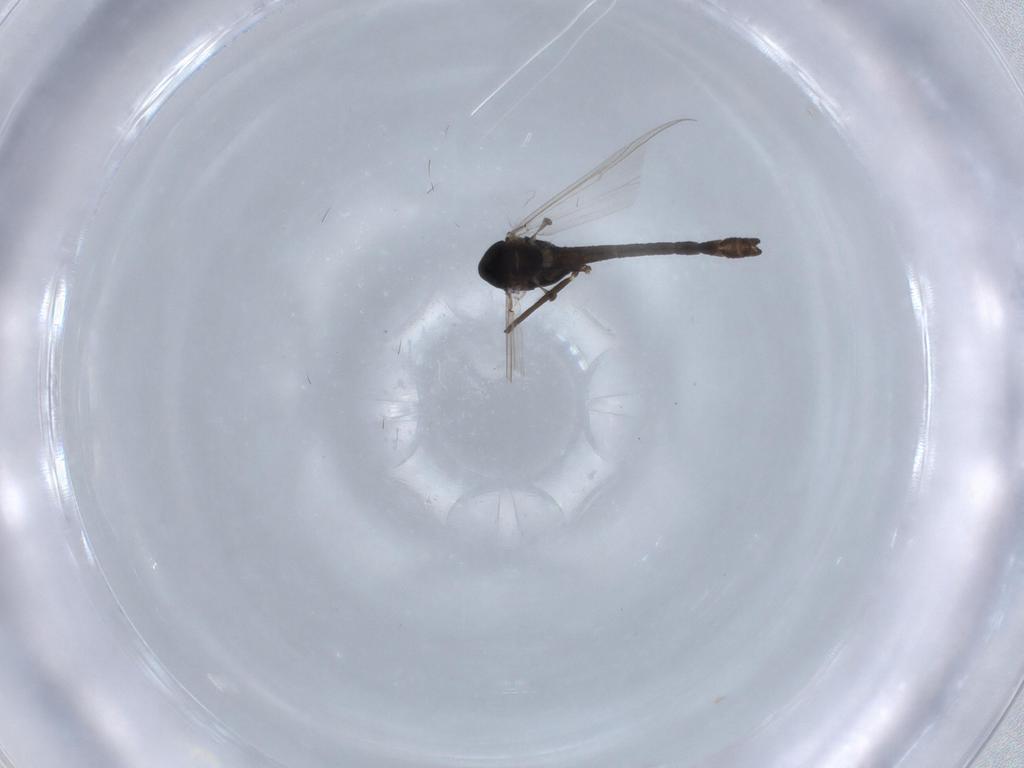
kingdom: Animalia
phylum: Arthropoda
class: Insecta
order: Diptera
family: Chironomidae
